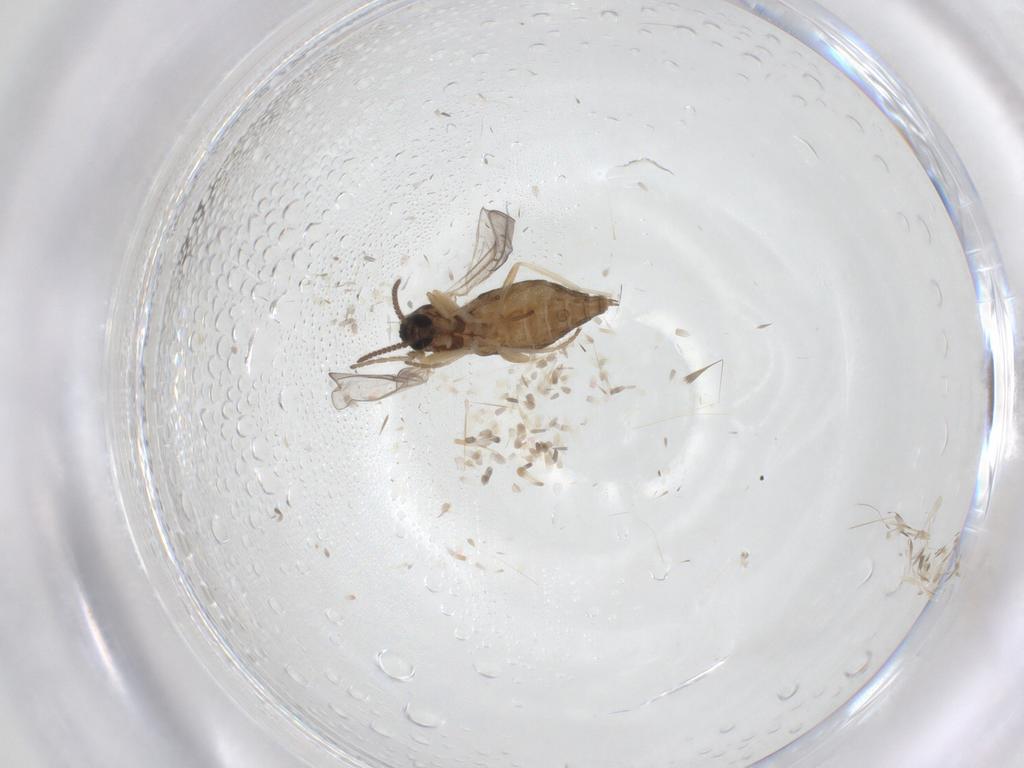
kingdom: Animalia
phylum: Arthropoda
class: Insecta
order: Diptera
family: Cecidomyiidae
